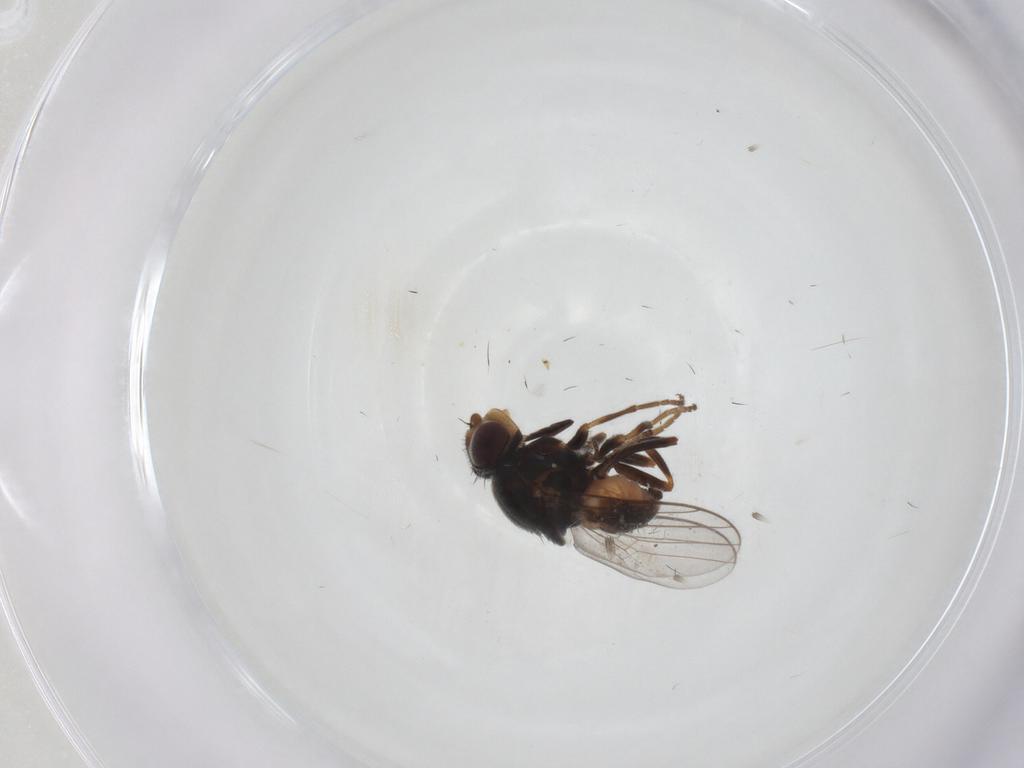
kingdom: Animalia
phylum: Arthropoda
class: Insecta
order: Diptera
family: Chloropidae
